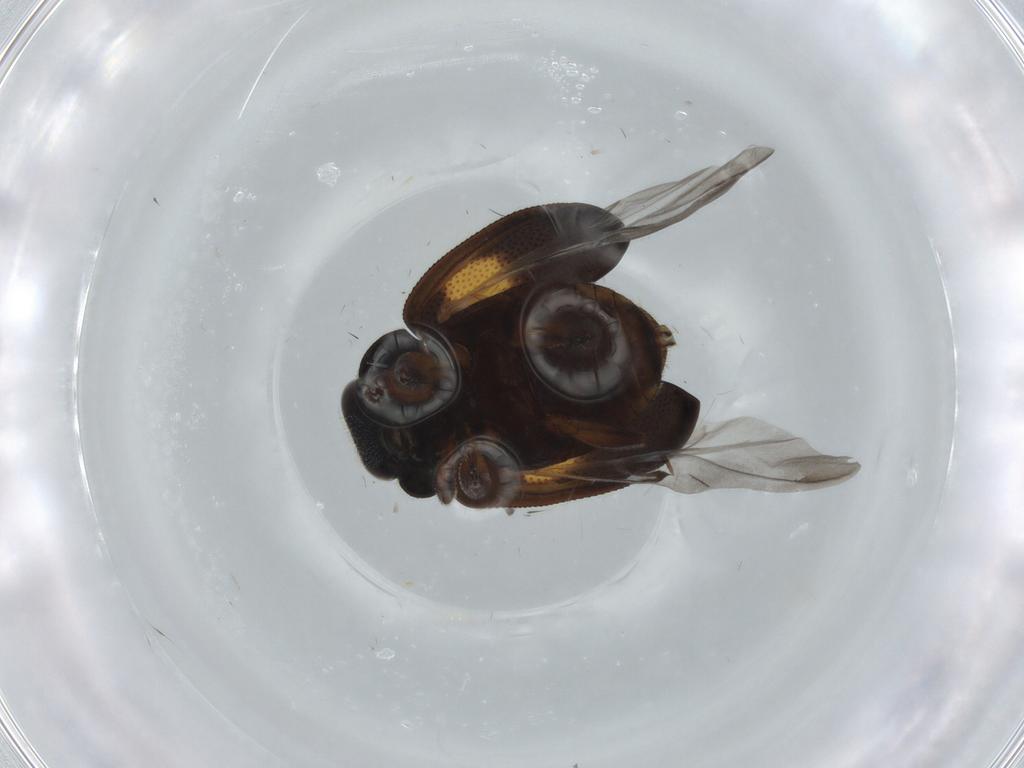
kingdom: Animalia
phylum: Arthropoda
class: Insecta
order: Coleoptera
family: Coccinellidae
